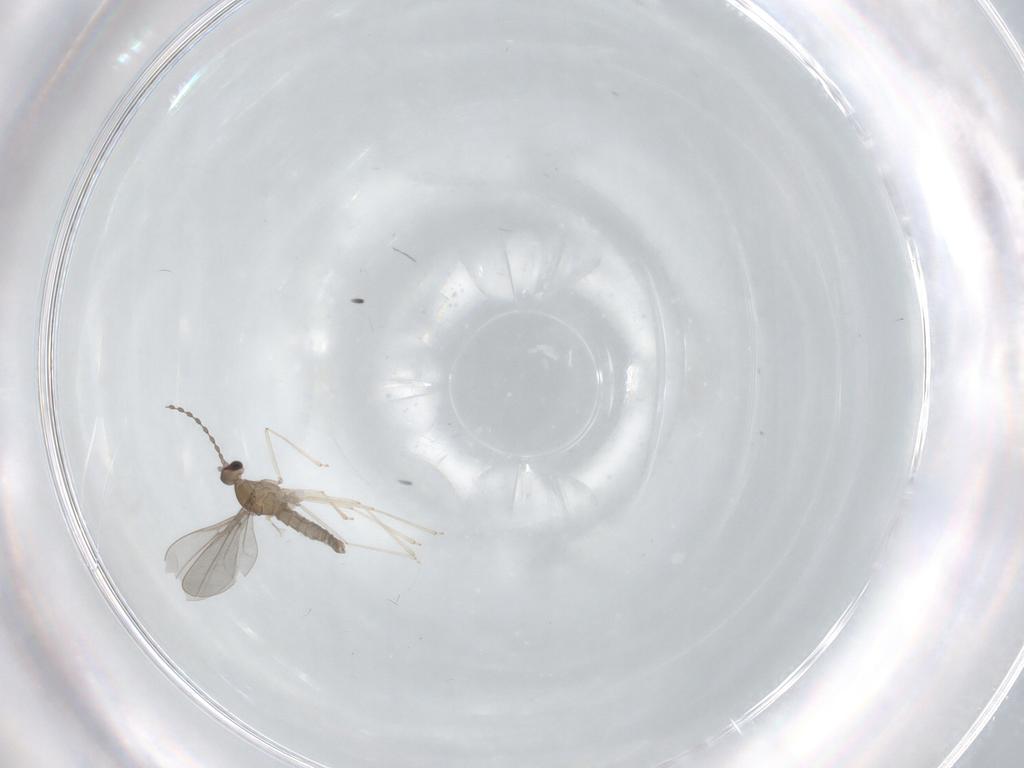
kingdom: Animalia
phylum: Arthropoda
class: Insecta
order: Diptera
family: Cecidomyiidae
